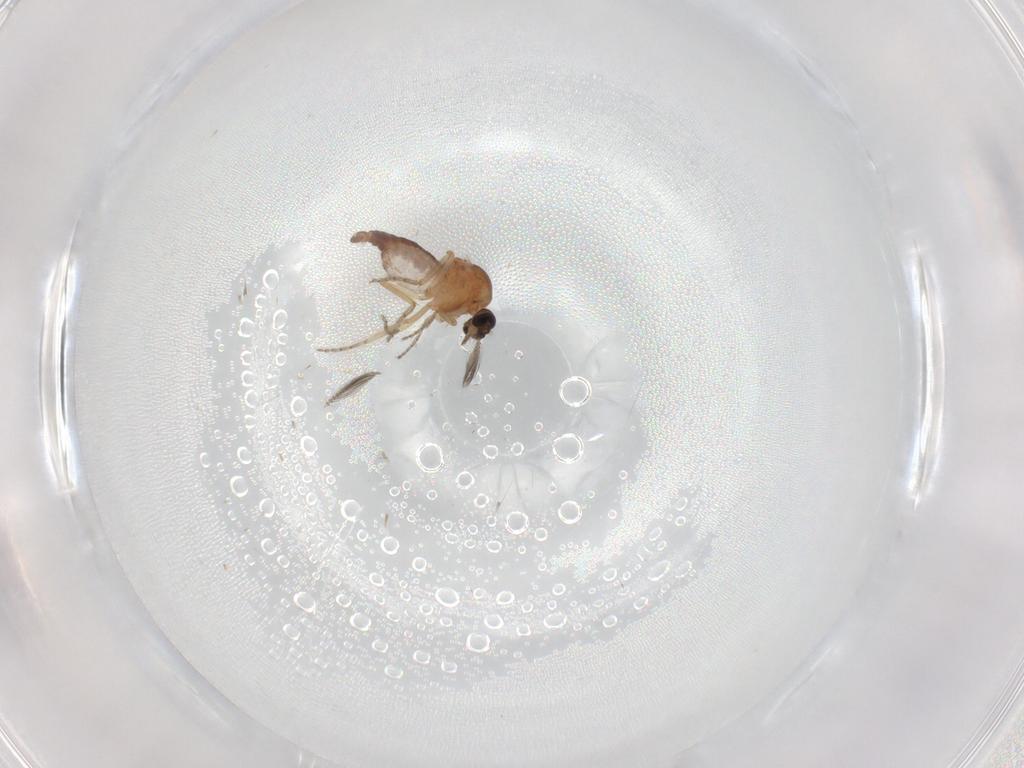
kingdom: Animalia
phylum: Arthropoda
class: Insecta
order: Diptera
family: Ceratopogonidae
